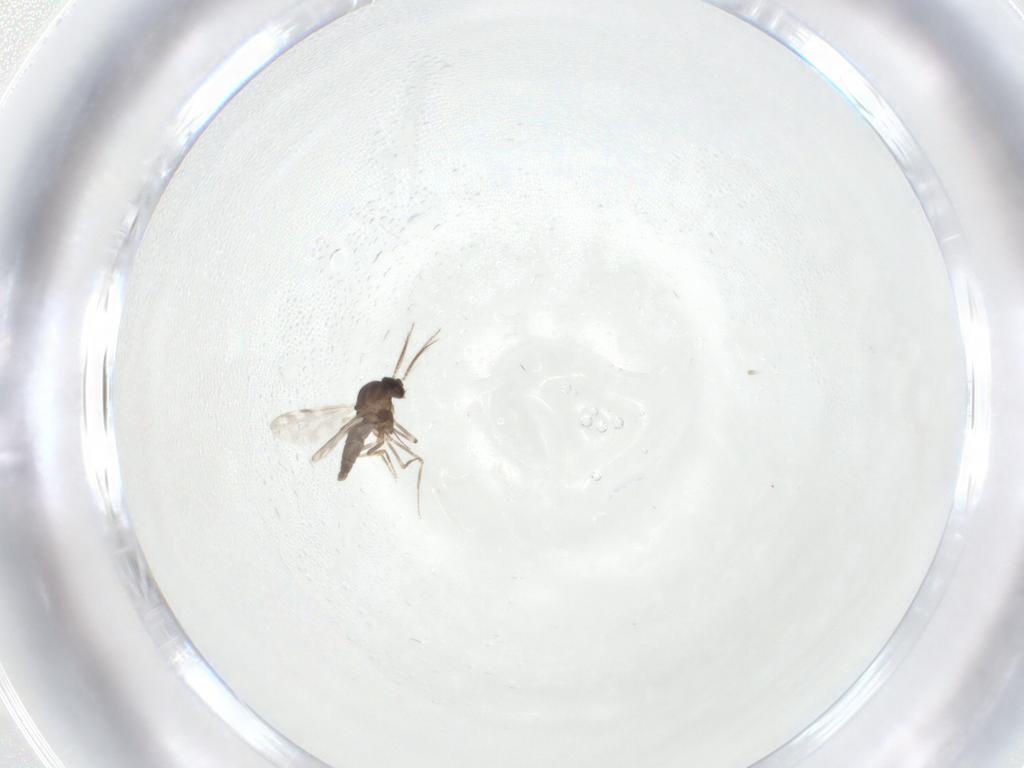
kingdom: Animalia
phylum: Arthropoda
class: Insecta
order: Diptera
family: Ceratopogonidae
